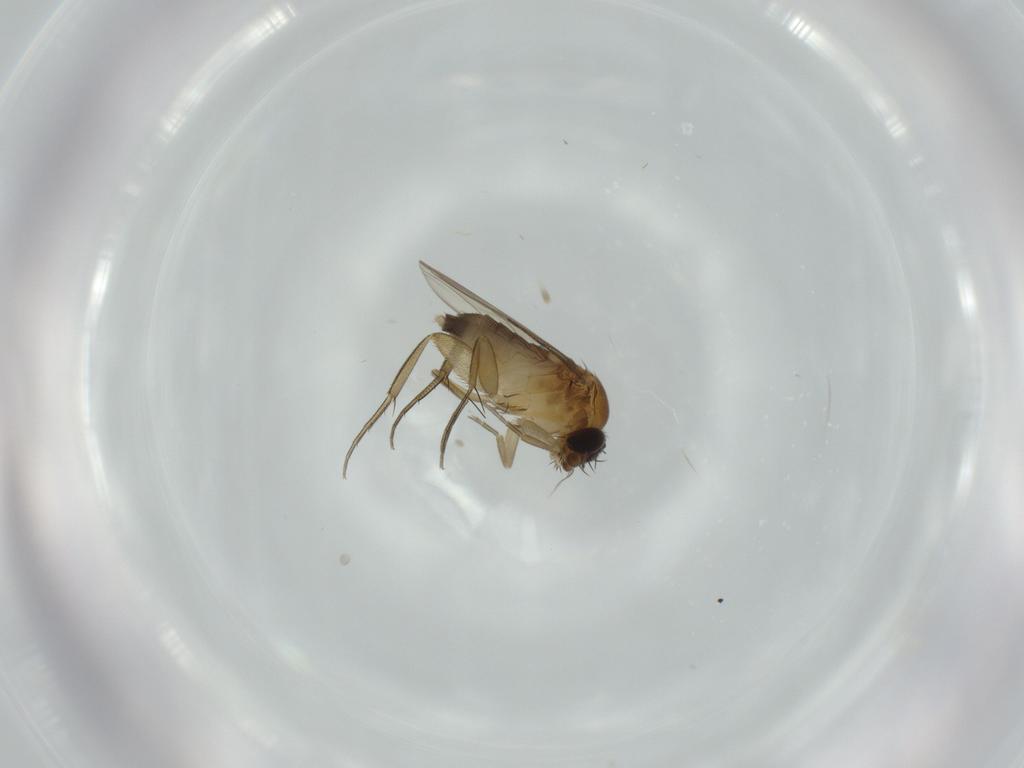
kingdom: Animalia
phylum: Arthropoda
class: Insecta
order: Diptera
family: Phoridae
